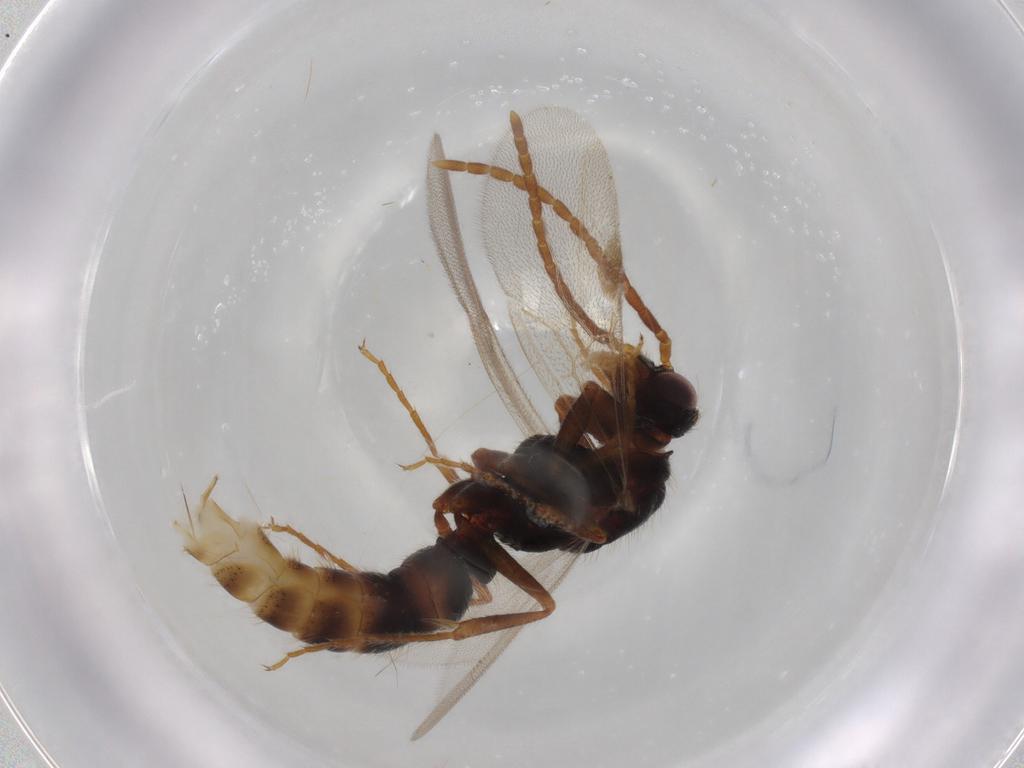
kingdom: Animalia
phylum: Arthropoda
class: Insecta
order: Hymenoptera
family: Formicidae
